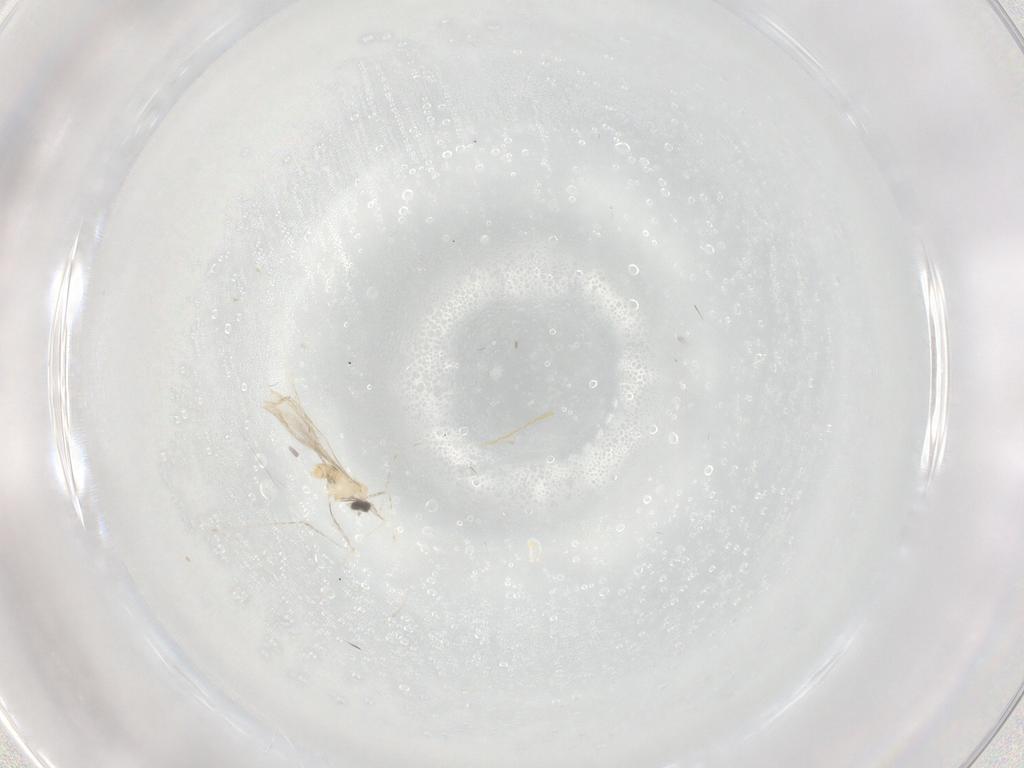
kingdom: Animalia
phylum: Arthropoda
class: Insecta
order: Diptera
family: Cecidomyiidae
